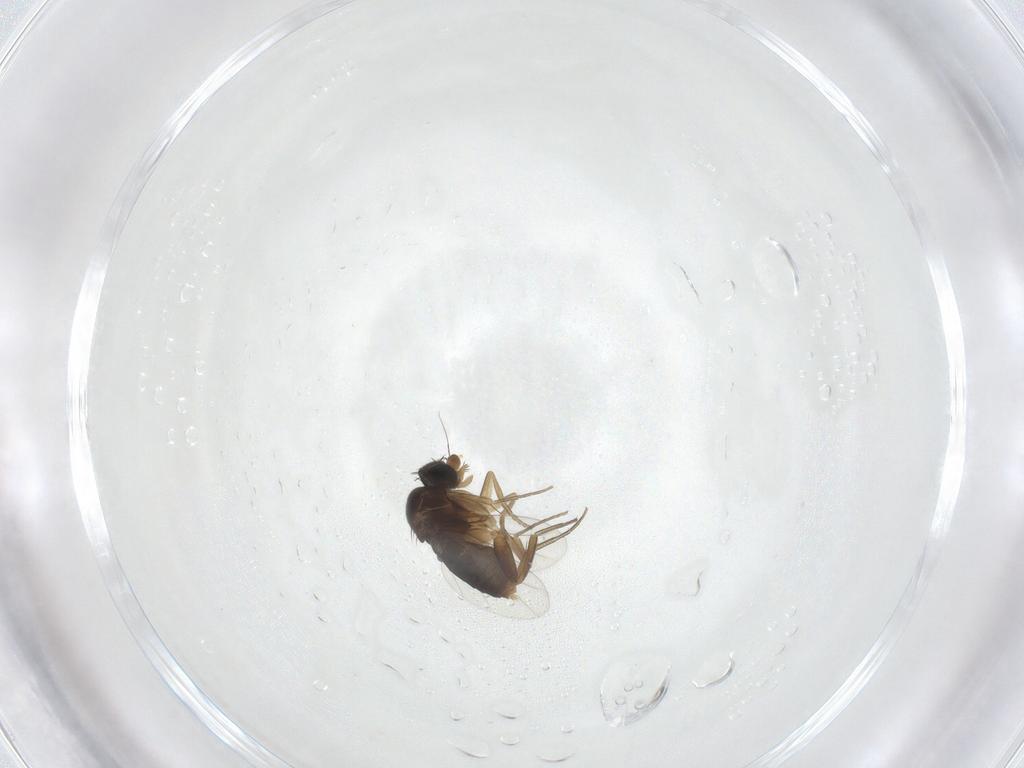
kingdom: Animalia
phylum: Arthropoda
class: Insecta
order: Diptera
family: Phoridae
